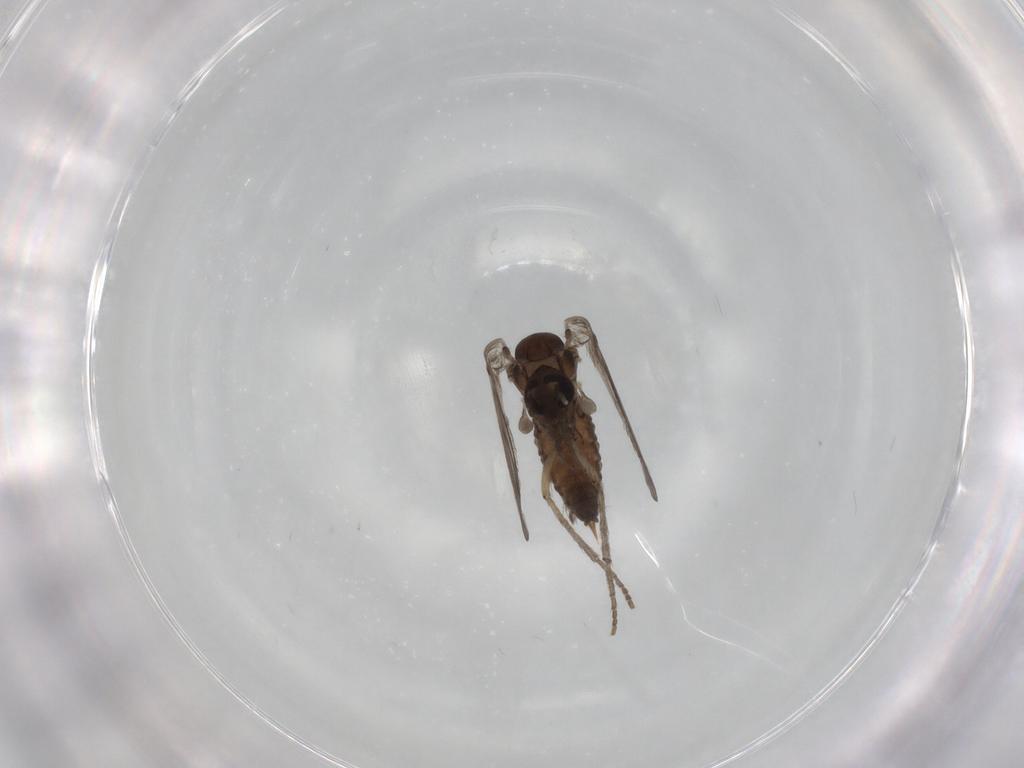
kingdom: Animalia
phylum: Arthropoda
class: Insecta
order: Diptera
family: Psychodidae
